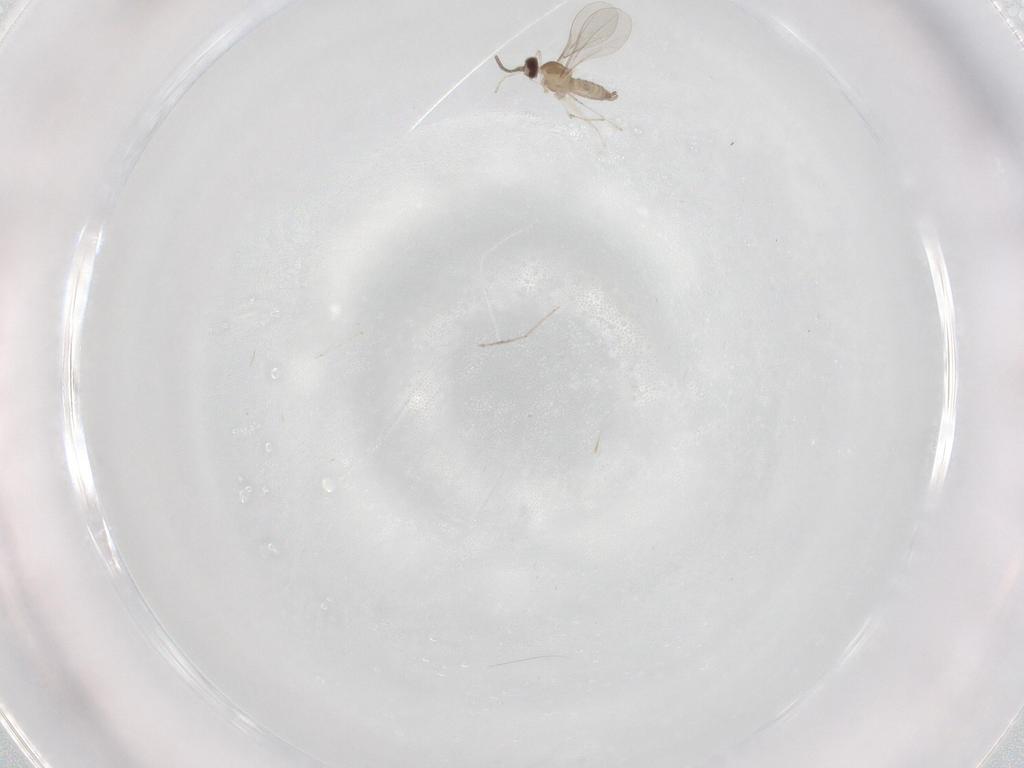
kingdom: Animalia
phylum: Arthropoda
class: Insecta
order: Diptera
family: Cecidomyiidae
